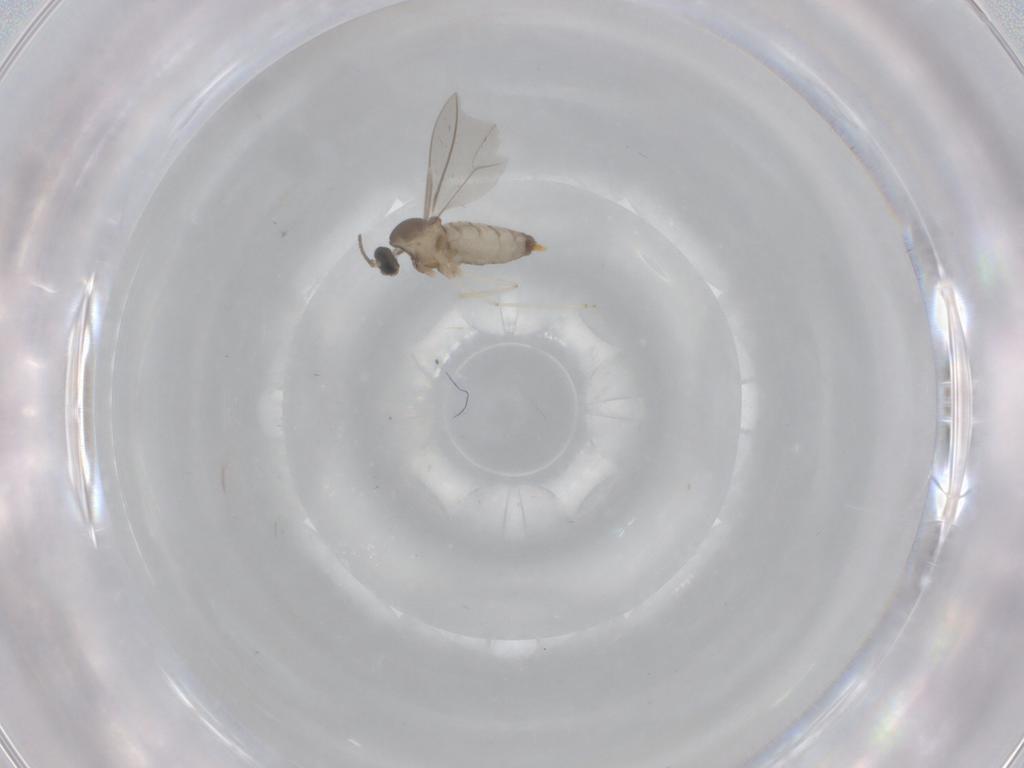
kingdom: Animalia
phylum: Arthropoda
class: Insecta
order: Diptera
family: Cecidomyiidae
